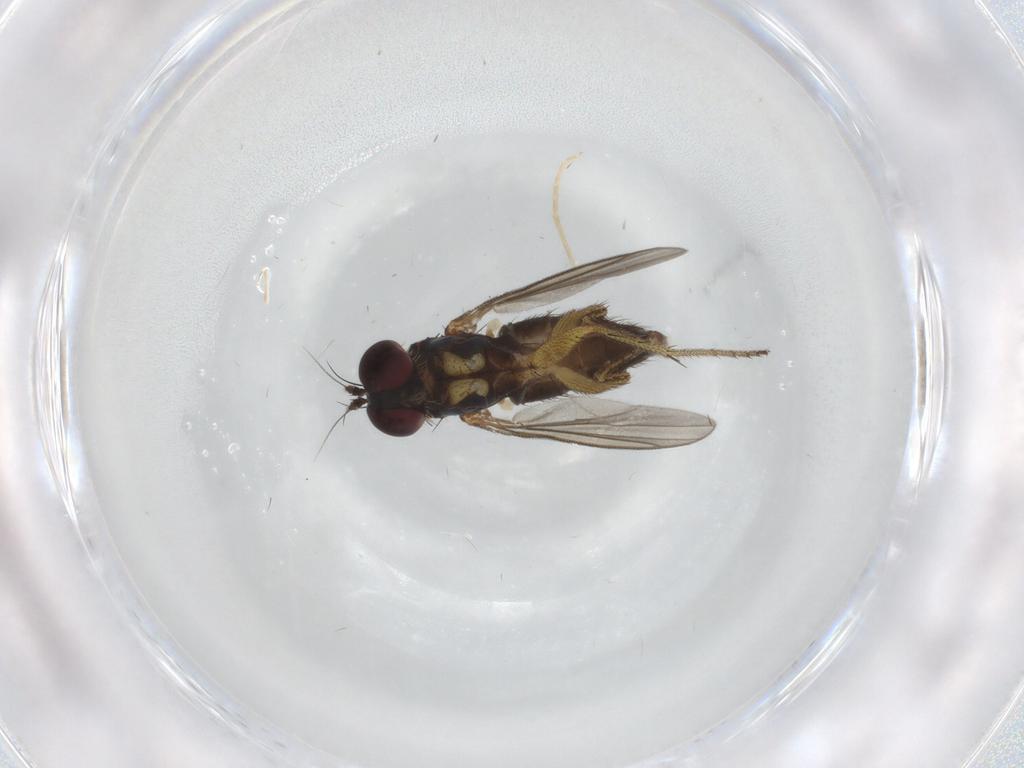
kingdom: Animalia
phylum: Arthropoda
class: Insecta
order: Diptera
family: Dolichopodidae
